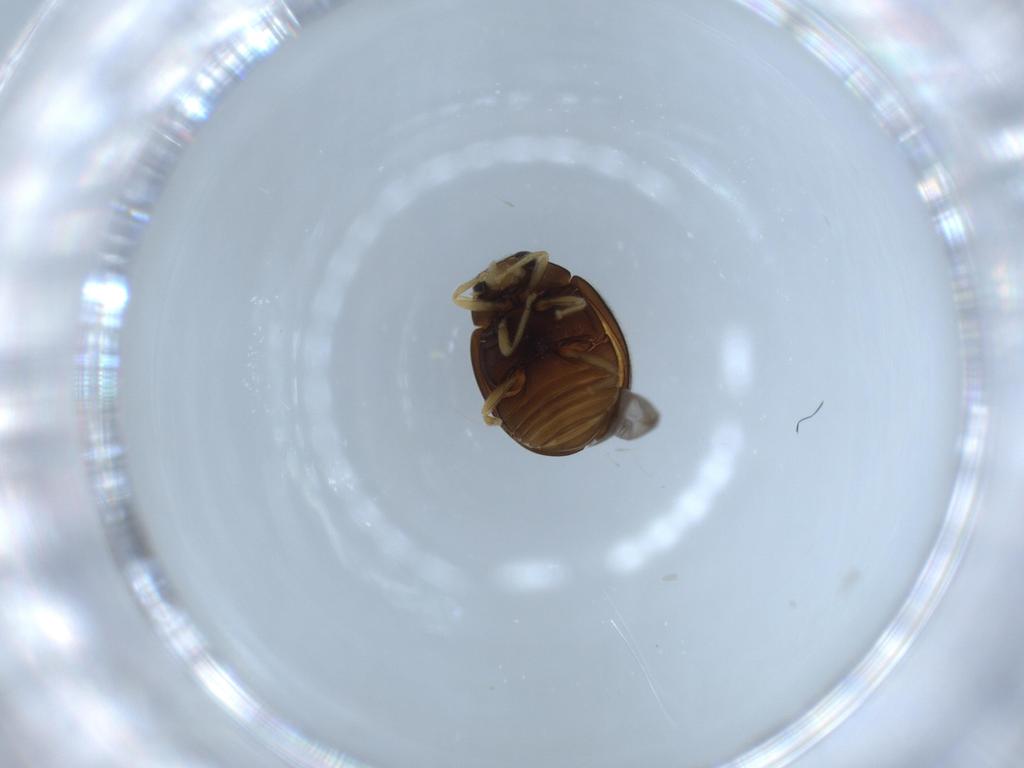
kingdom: Animalia
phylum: Arthropoda
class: Insecta
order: Coleoptera
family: Coccinellidae
